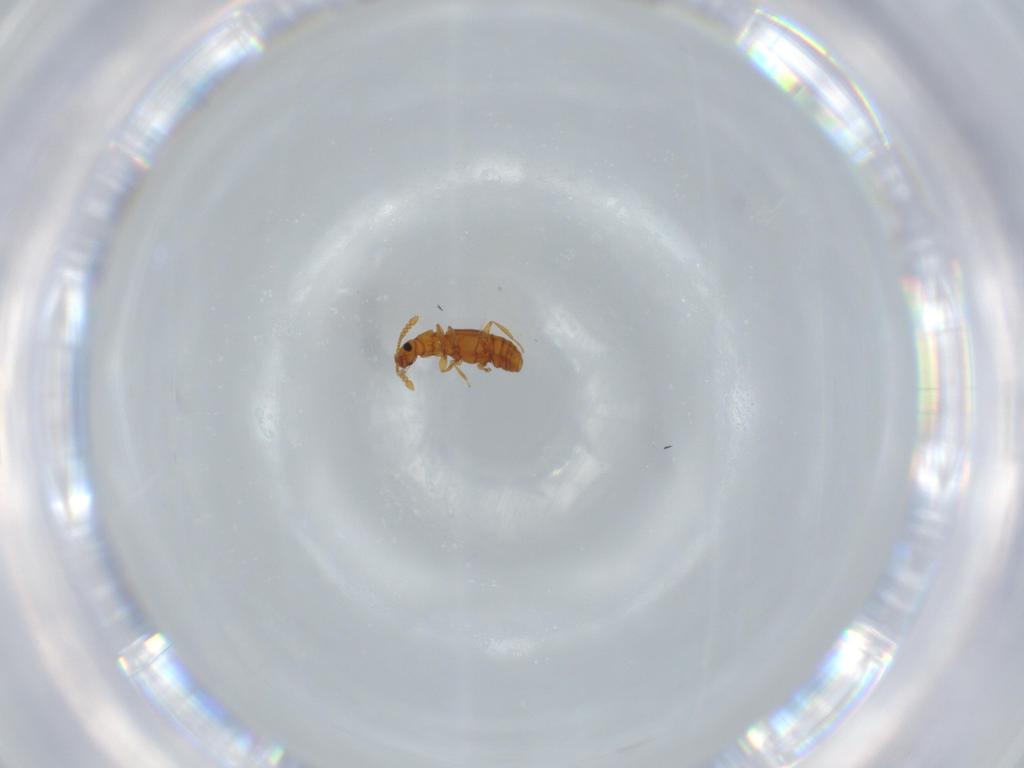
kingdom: Animalia
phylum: Arthropoda
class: Insecta
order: Coleoptera
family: Staphylinidae
